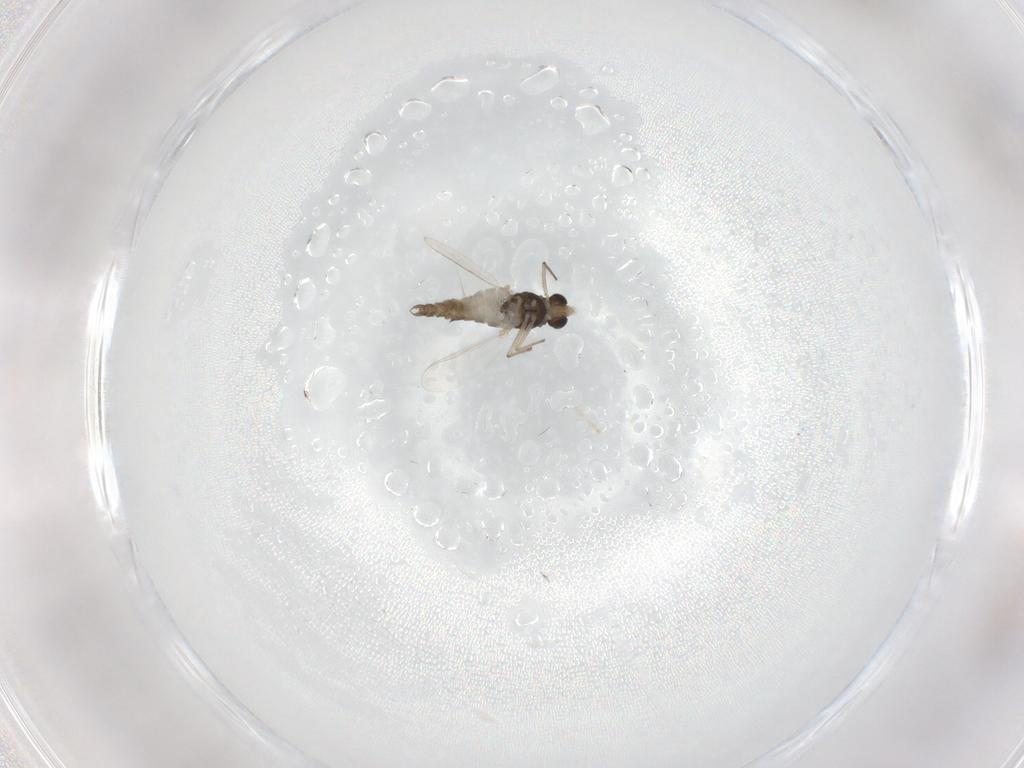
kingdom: Animalia
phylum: Arthropoda
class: Insecta
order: Diptera
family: Chironomidae
